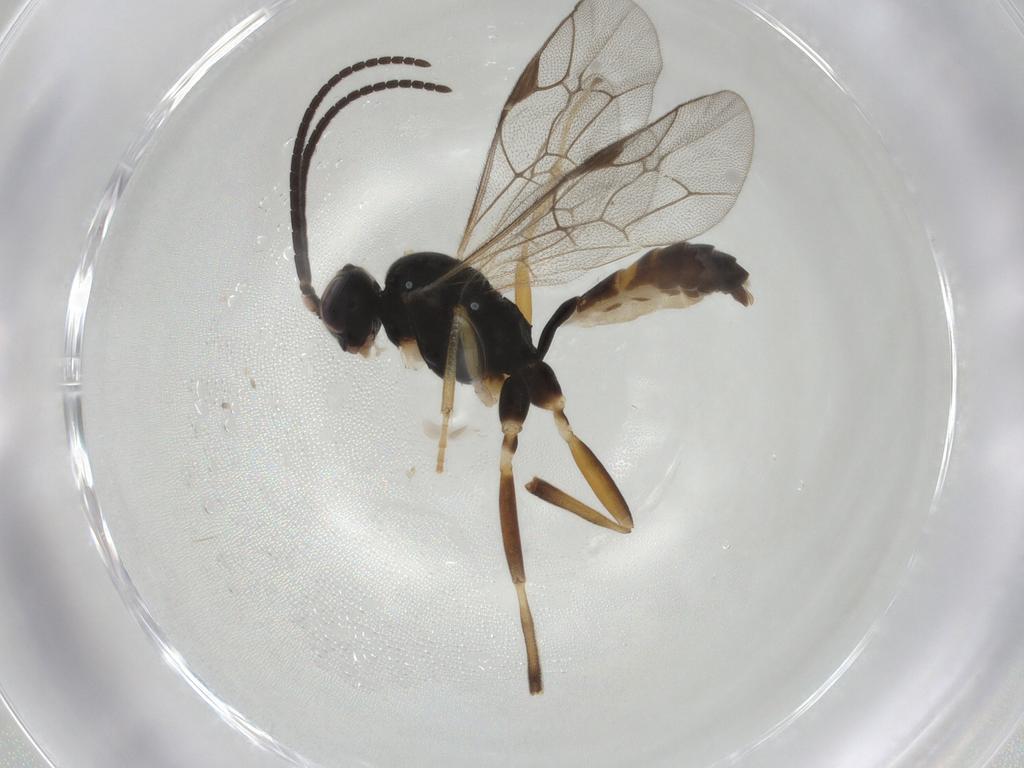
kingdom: Animalia
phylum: Arthropoda
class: Insecta
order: Hymenoptera
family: Ichneumonidae
